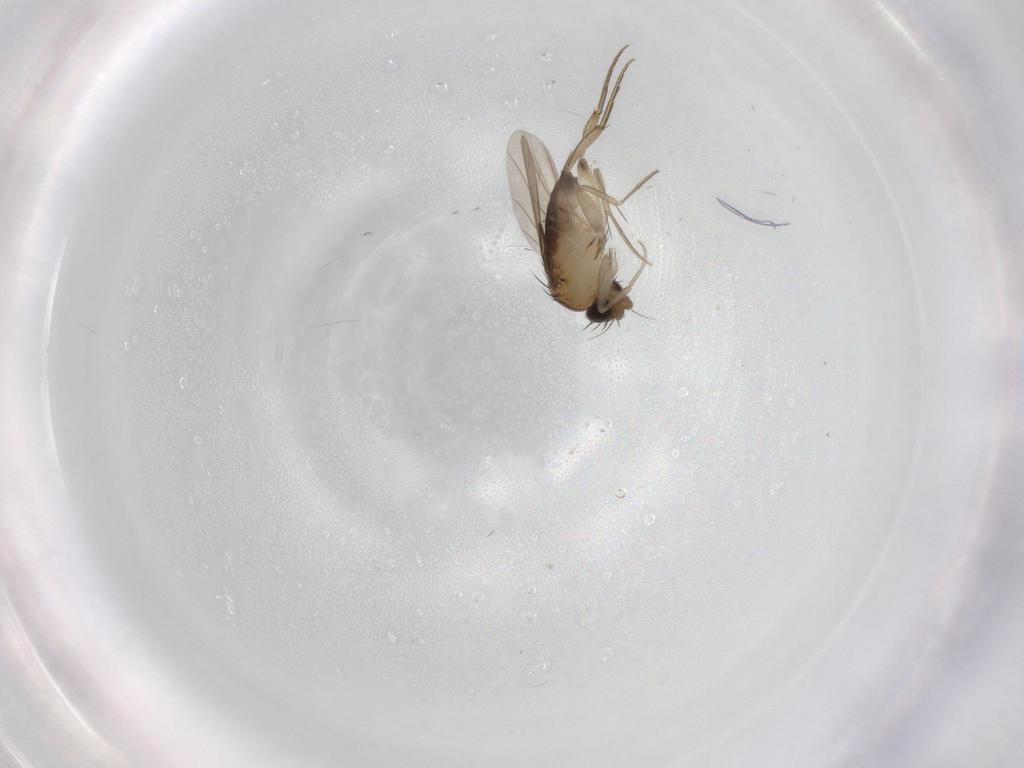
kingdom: Animalia
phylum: Arthropoda
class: Insecta
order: Diptera
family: Phoridae
